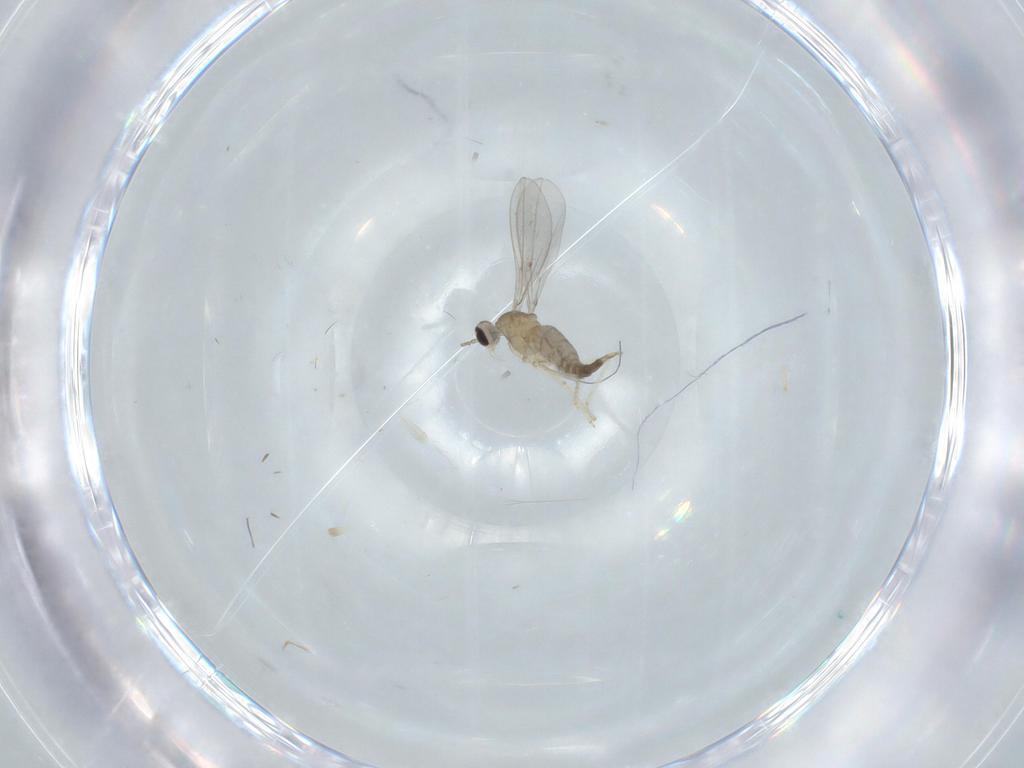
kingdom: Animalia
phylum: Arthropoda
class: Insecta
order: Diptera
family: Cecidomyiidae
